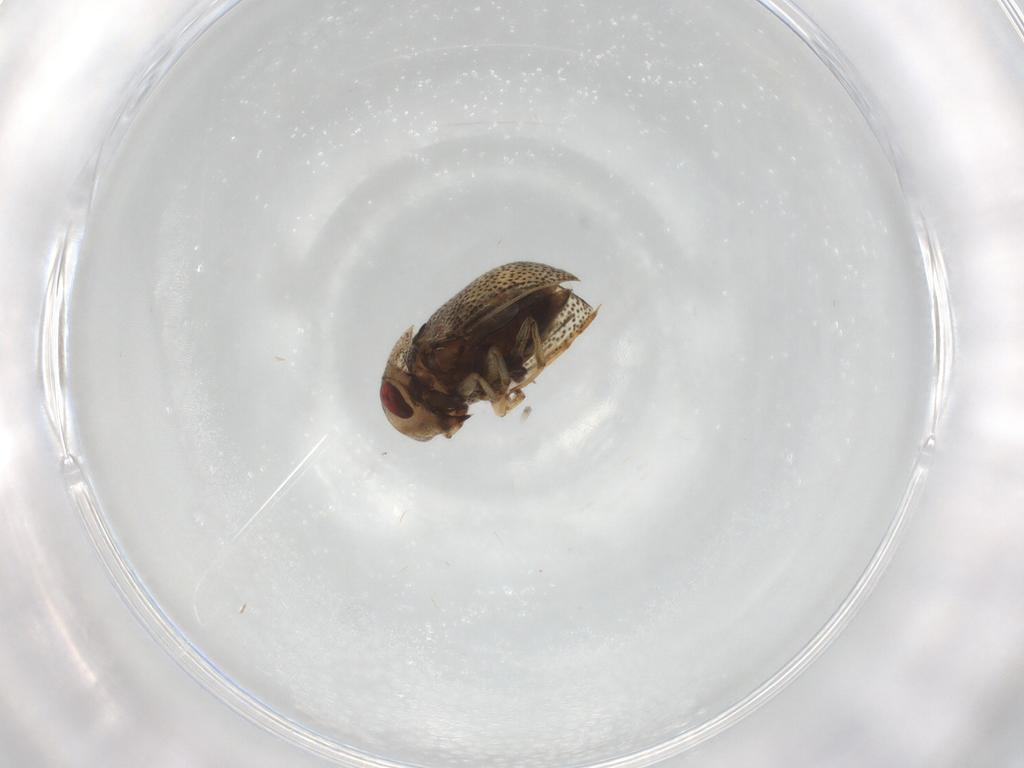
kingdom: Animalia
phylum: Arthropoda
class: Insecta
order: Hemiptera
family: Pleidae
